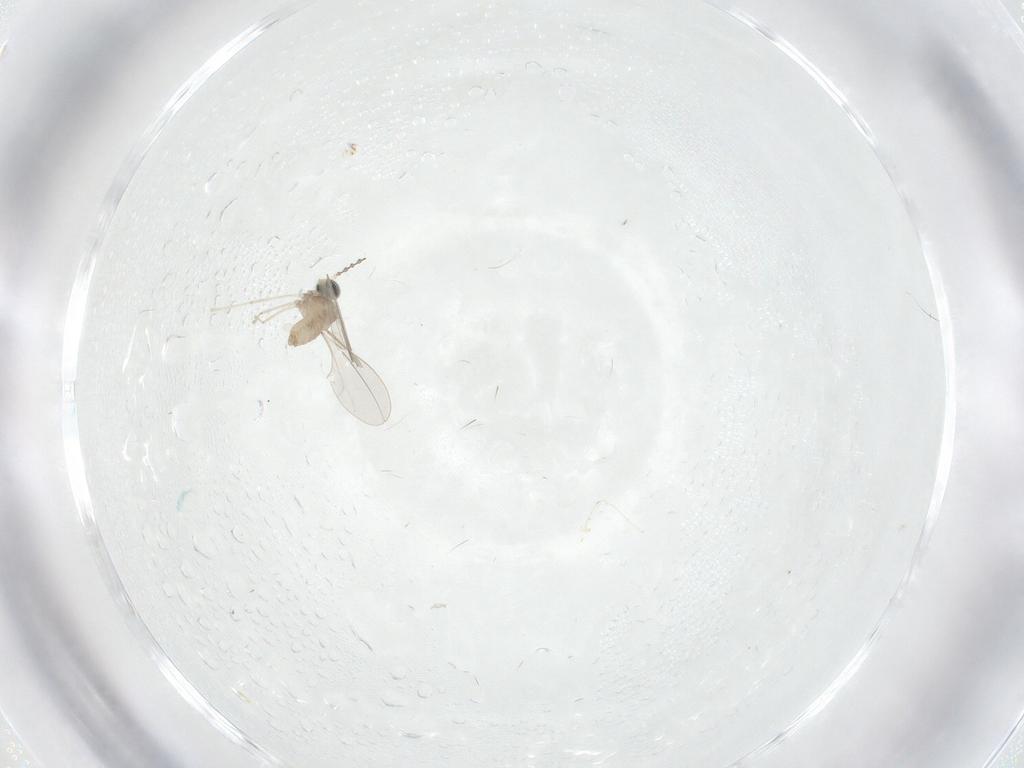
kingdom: Animalia
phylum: Arthropoda
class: Insecta
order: Diptera
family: Cecidomyiidae
